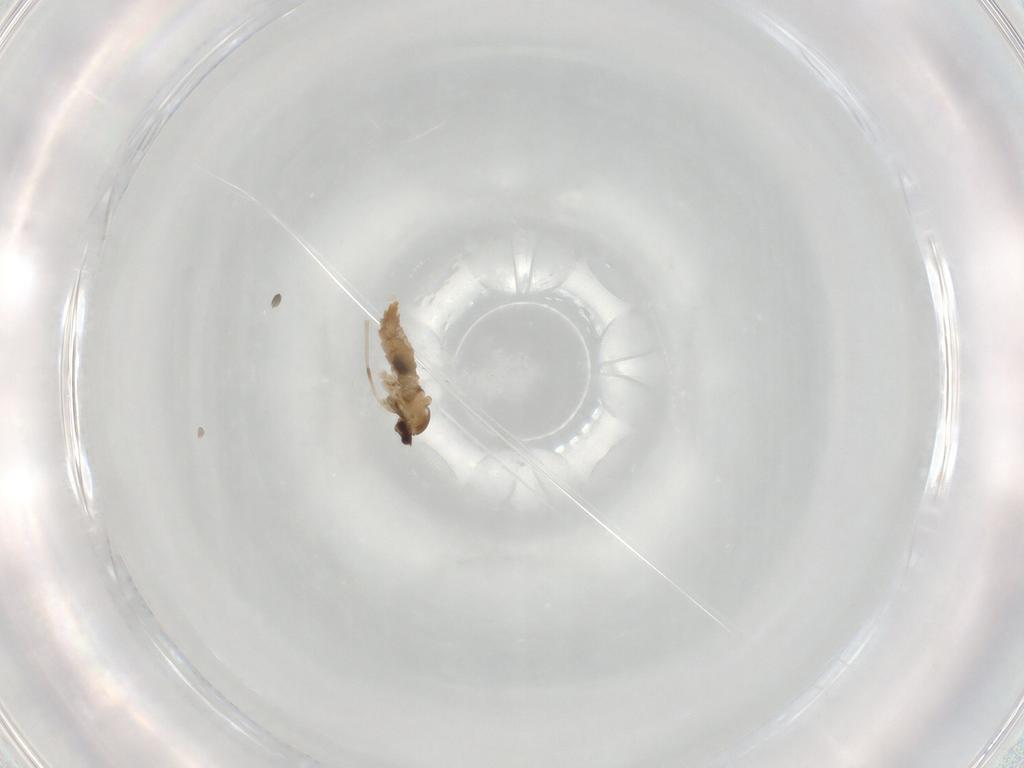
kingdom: Animalia
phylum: Arthropoda
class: Insecta
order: Diptera
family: Cecidomyiidae
